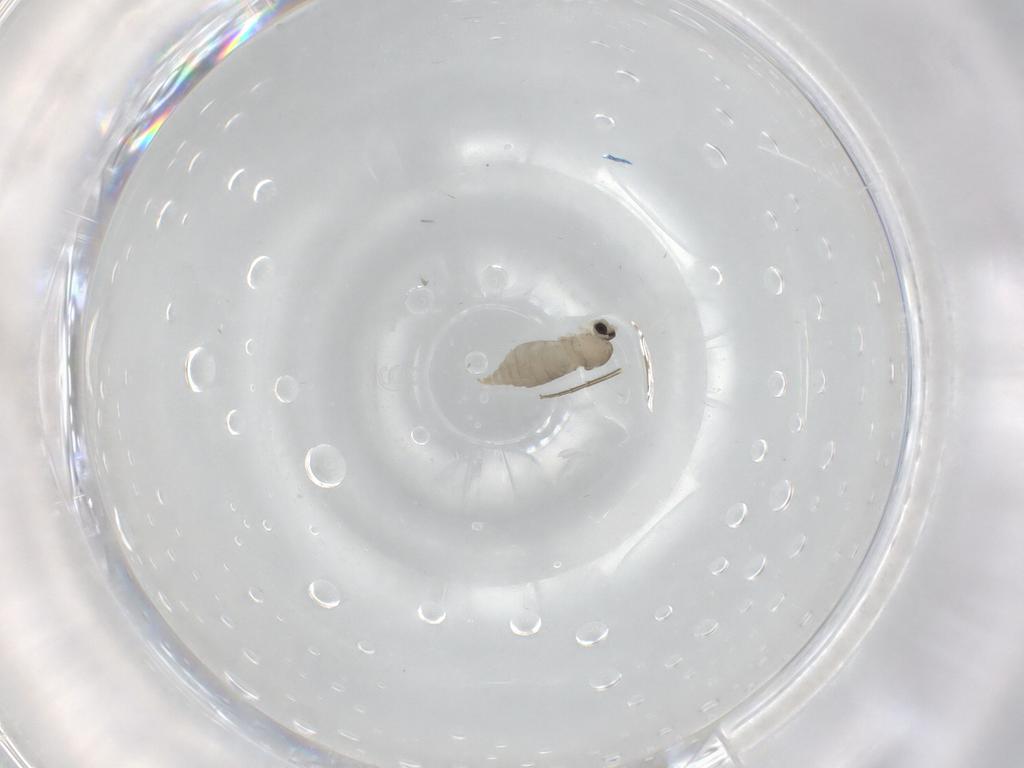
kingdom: Animalia
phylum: Arthropoda
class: Insecta
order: Diptera
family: Cecidomyiidae
